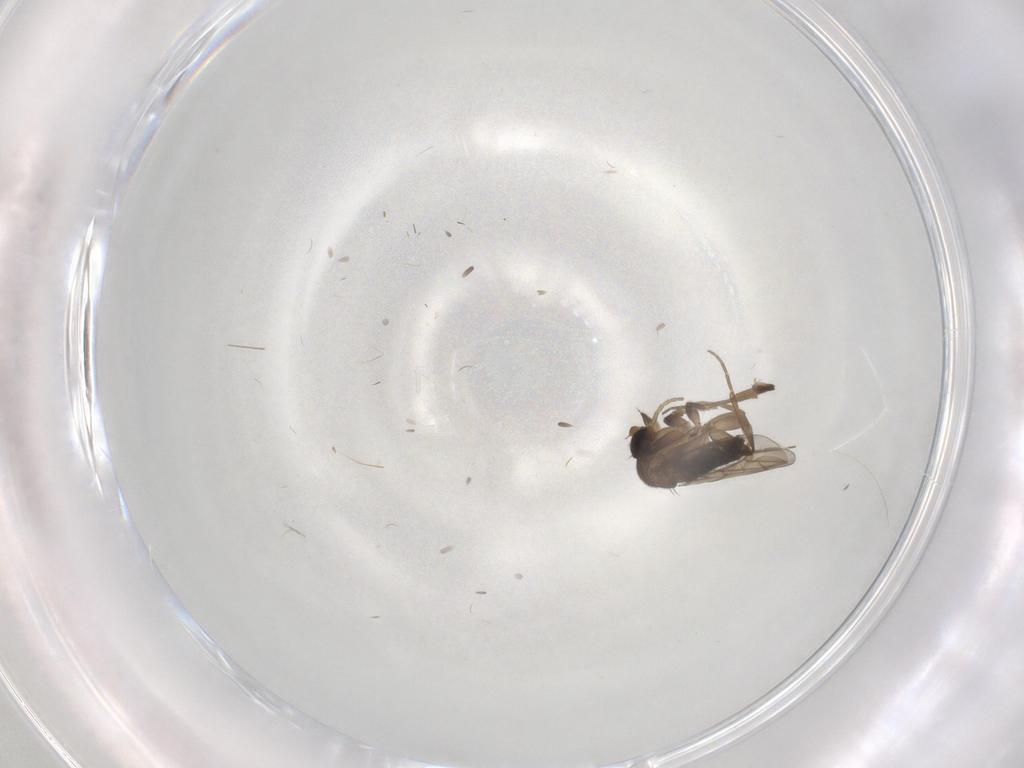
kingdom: Animalia
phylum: Arthropoda
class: Insecta
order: Diptera
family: Phoridae
